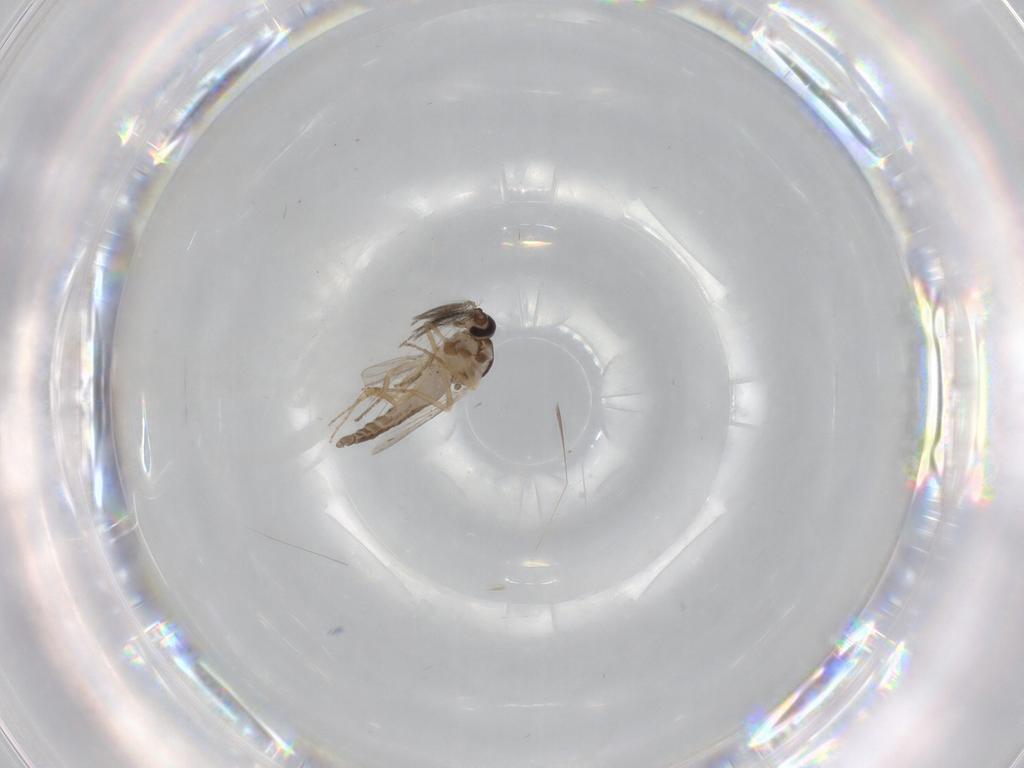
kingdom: Animalia
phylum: Arthropoda
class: Insecta
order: Diptera
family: Ceratopogonidae
